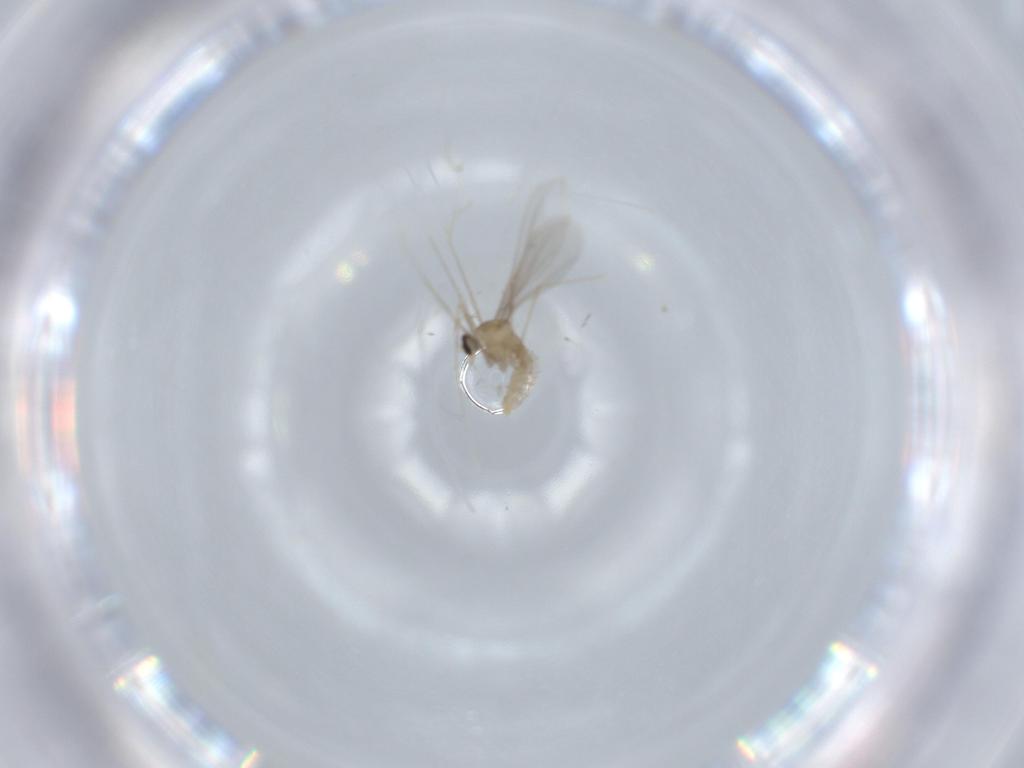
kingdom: Animalia
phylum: Arthropoda
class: Insecta
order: Diptera
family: Cecidomyiidae
